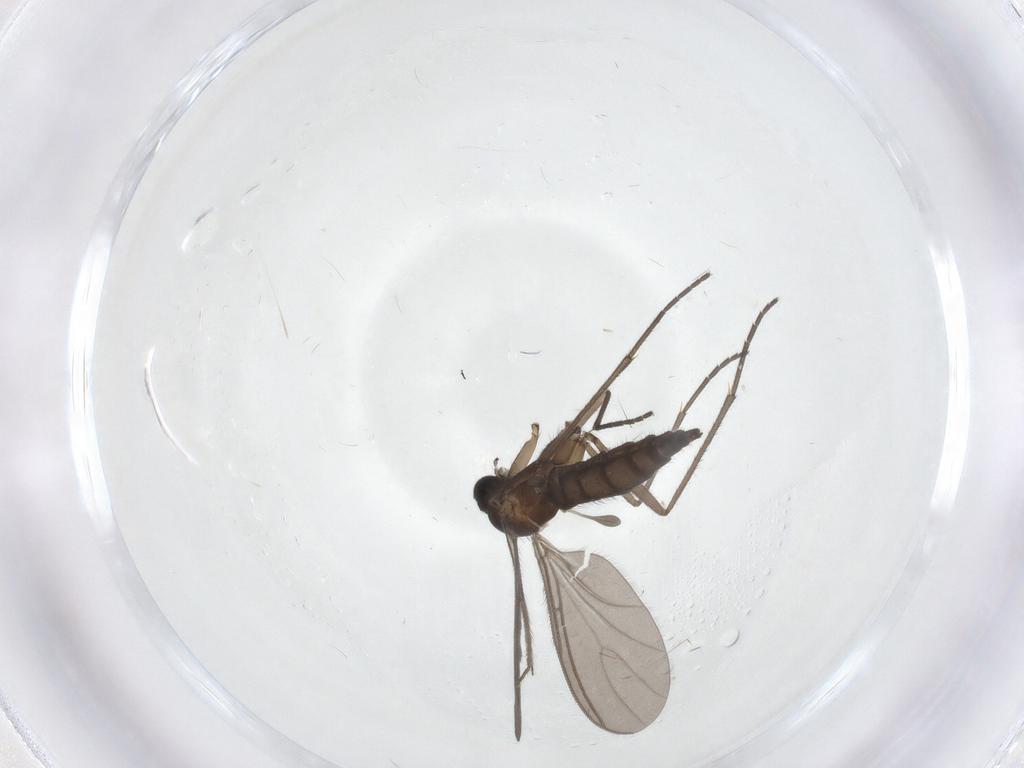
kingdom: Animalia
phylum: Arthropoda
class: Insecta
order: Diptera
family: Sciaridae
